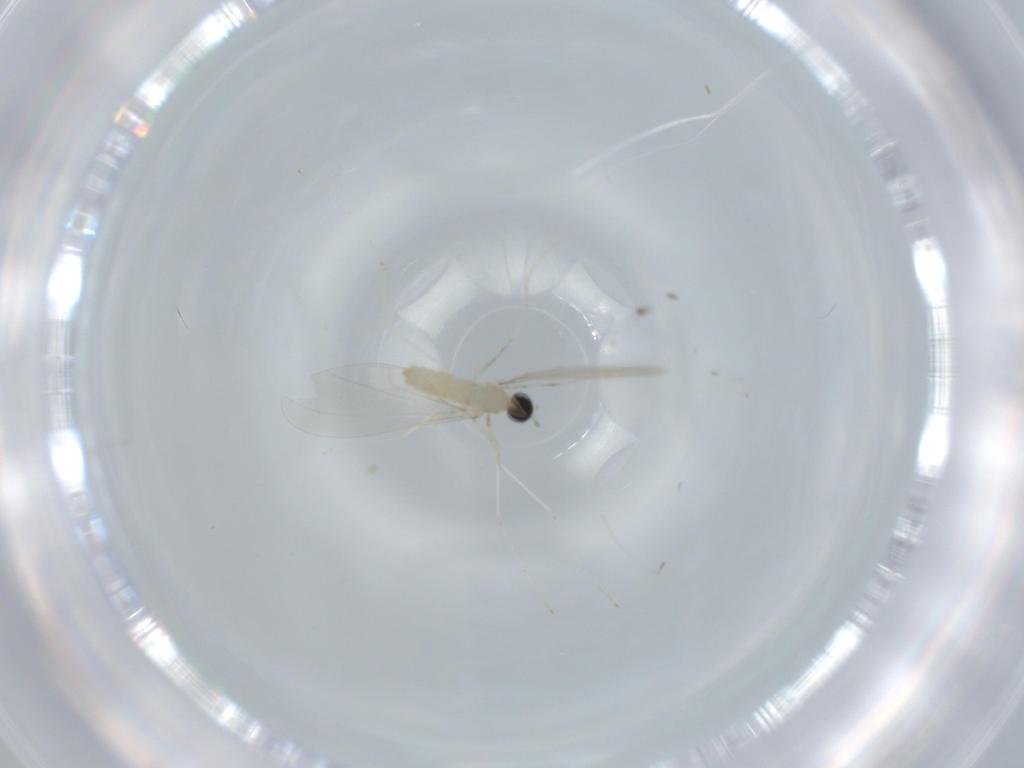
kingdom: Animalia
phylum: Arthropoda
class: Insecta
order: Diptera
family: Cecidomyiidae
